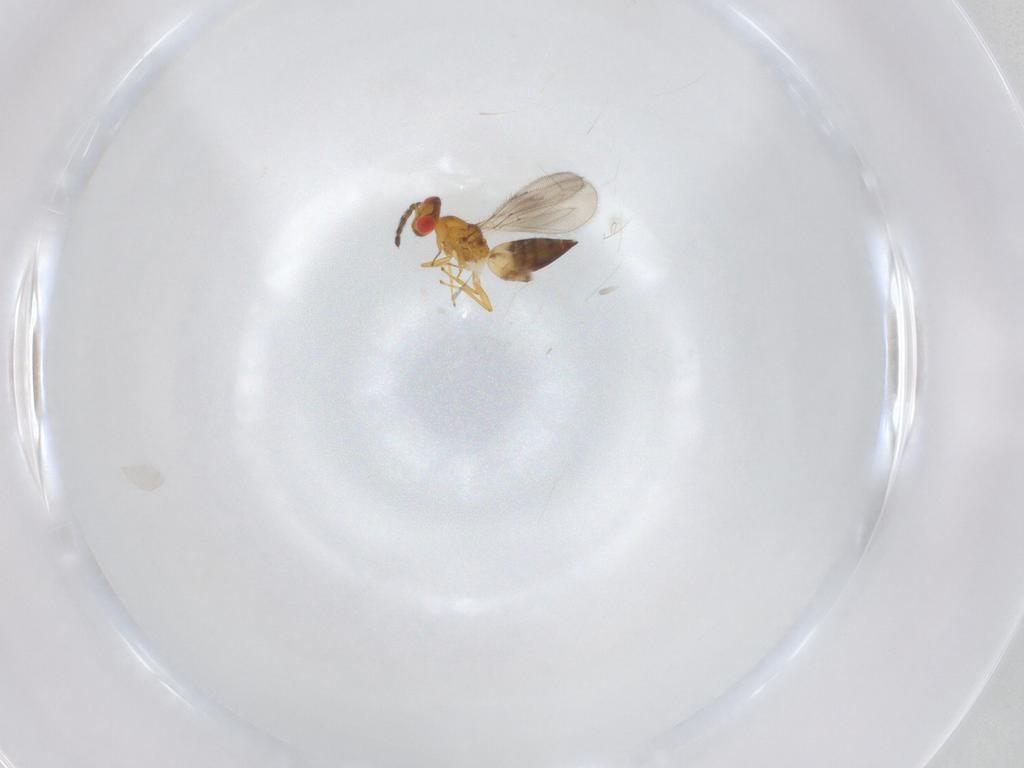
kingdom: Animalia
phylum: Arthropoda
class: Insecta
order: Hymenoptera
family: Eulophidae
